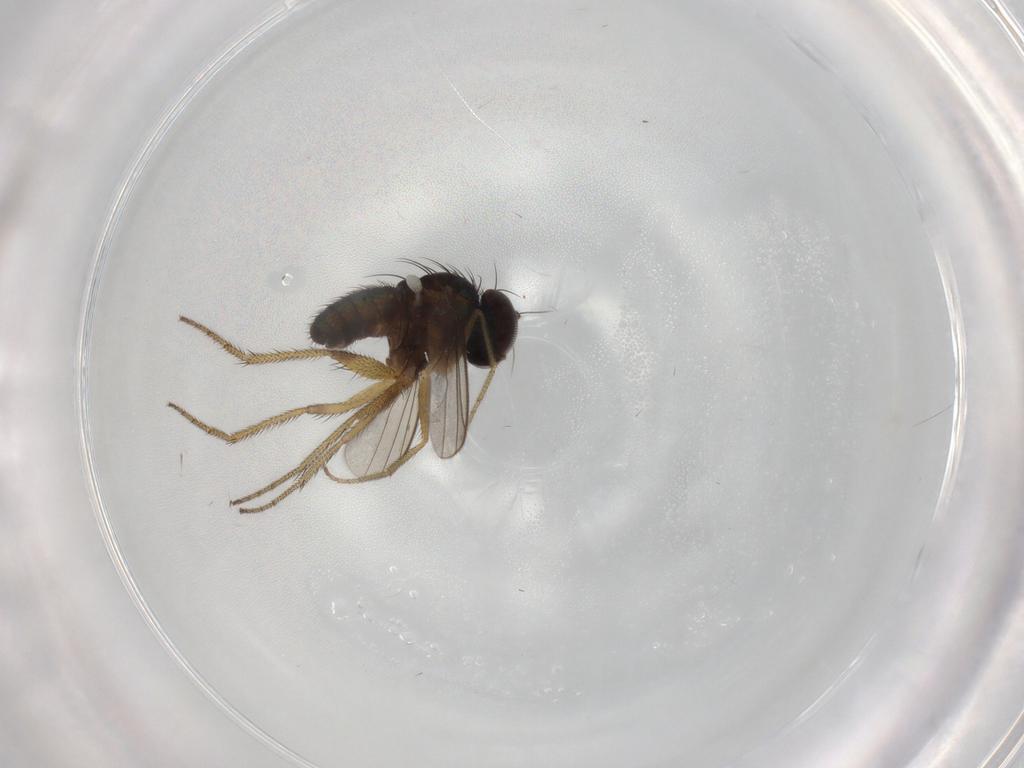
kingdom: Animalia
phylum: Arthropoda
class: Insecta
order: Diptera
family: Dolichopodidae
